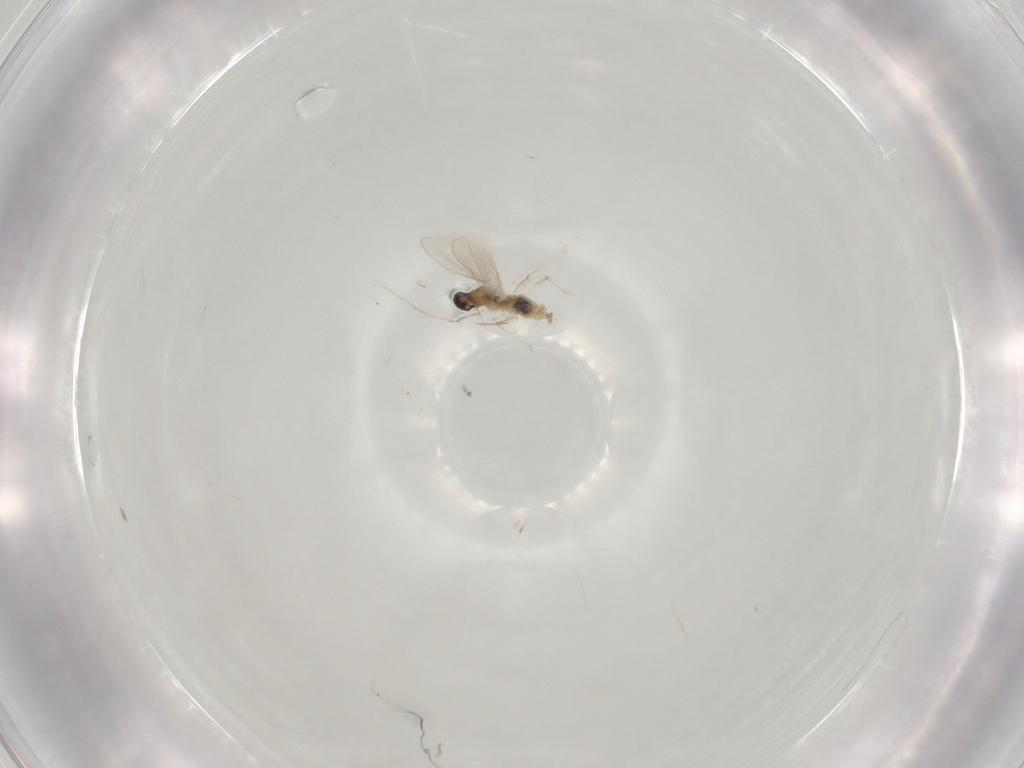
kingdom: Animalia
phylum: Arthropoda
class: Insecta
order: Diptera
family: Cecidomyiidae
